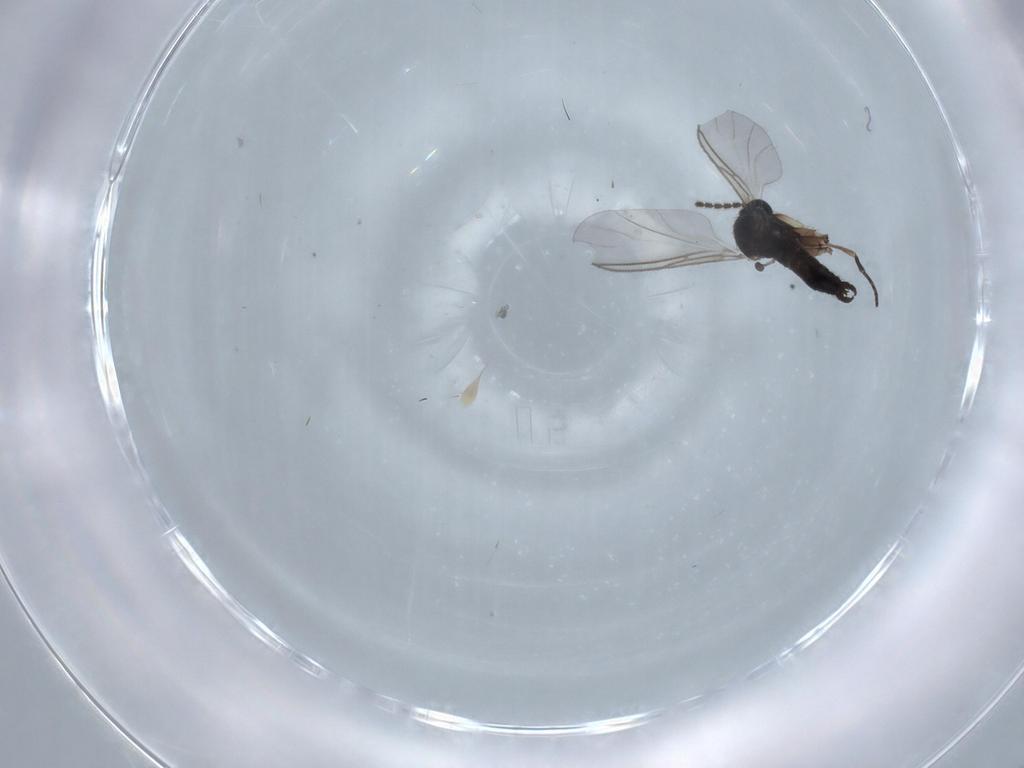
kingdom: Animalia
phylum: Arthropoda
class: Insecta
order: Diptera
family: Sciaridae
